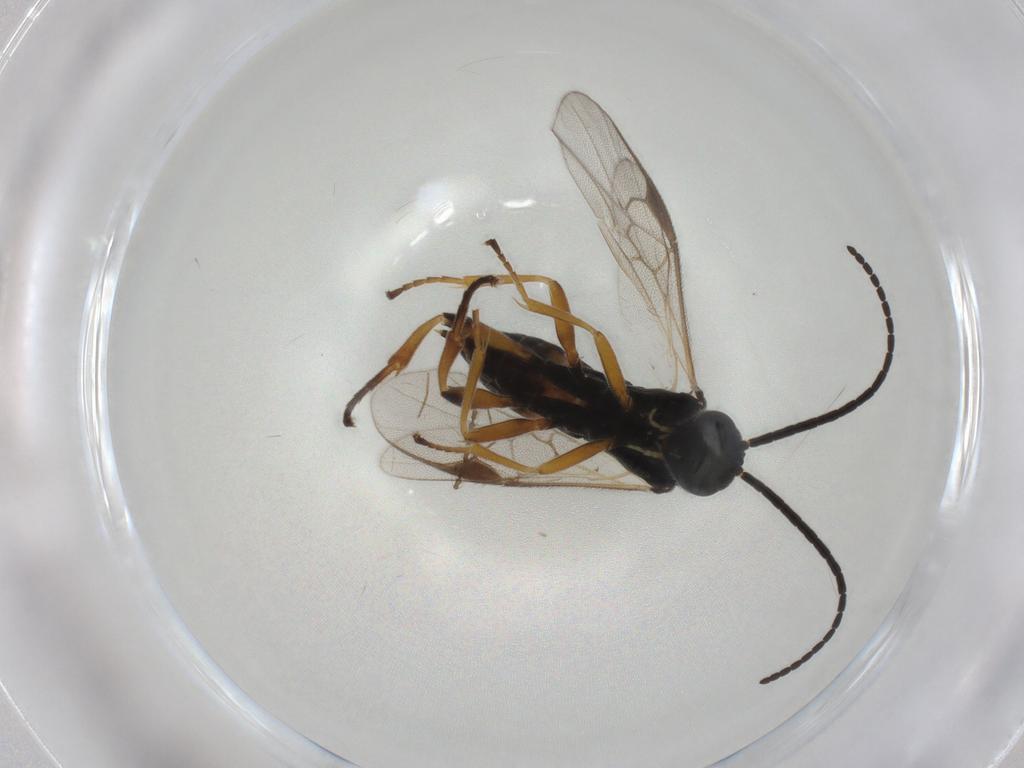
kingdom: Animalia
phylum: Arthropoda
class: Insecta
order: Hymenoptera
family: Braconidae
